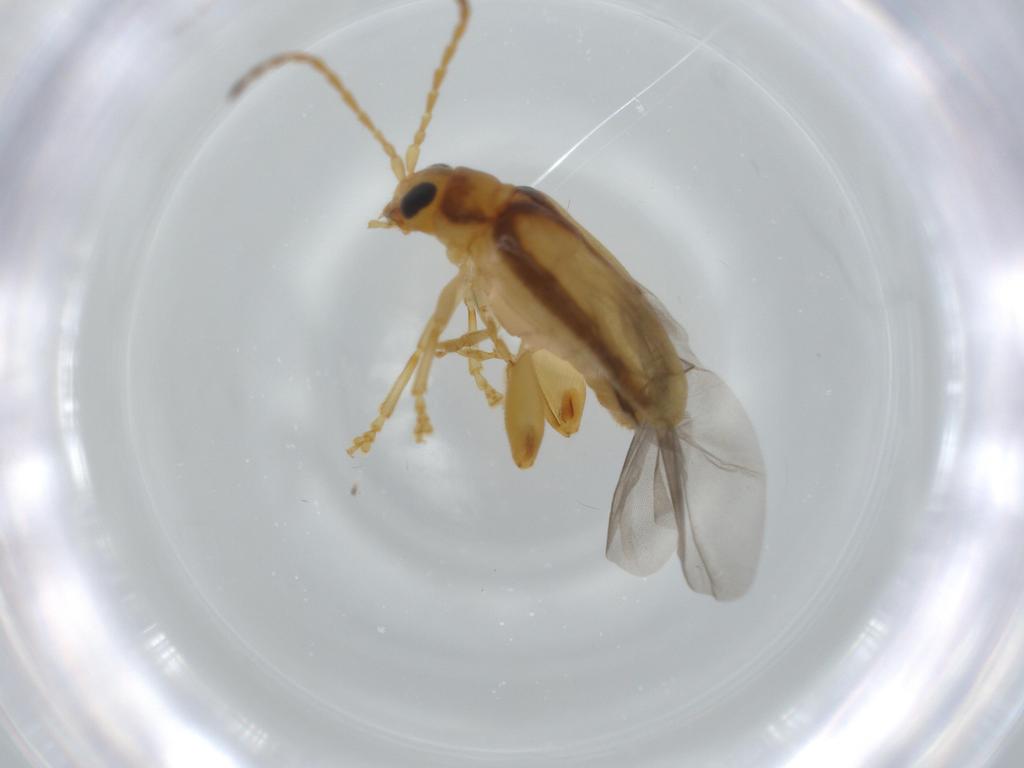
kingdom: Animalia
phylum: Arthropoda
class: Insecta
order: Coleoptera
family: Chrysomelidae
